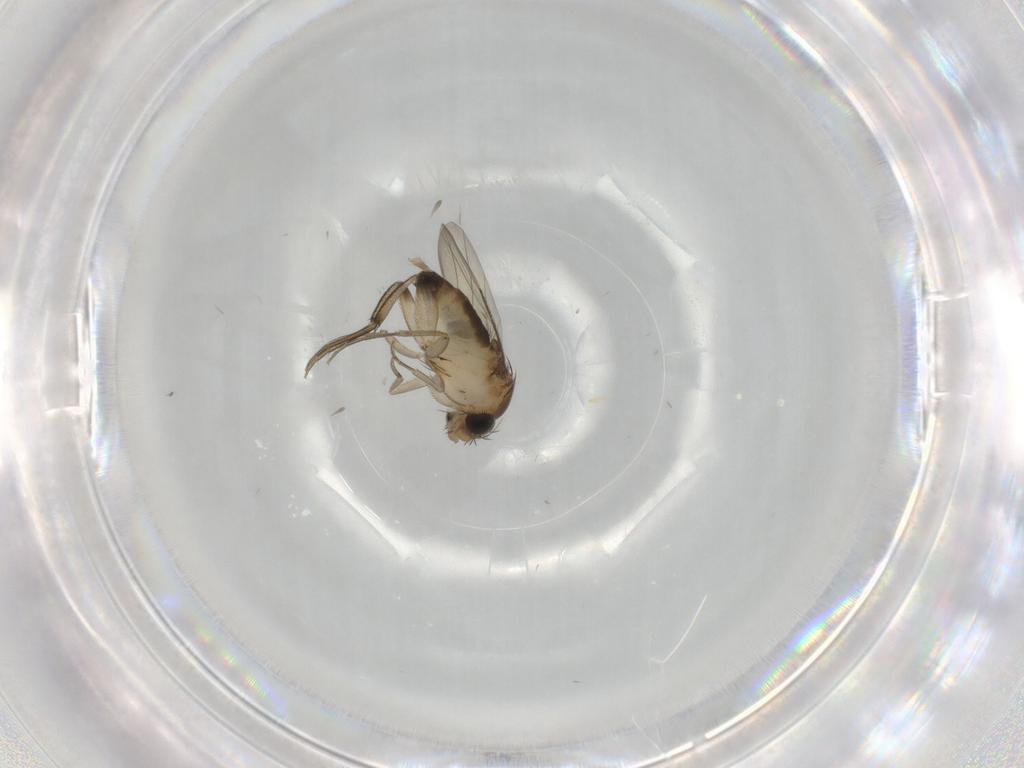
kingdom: Animalia
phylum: Arthropoda
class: Insecta
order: Diptera
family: Phoridae
